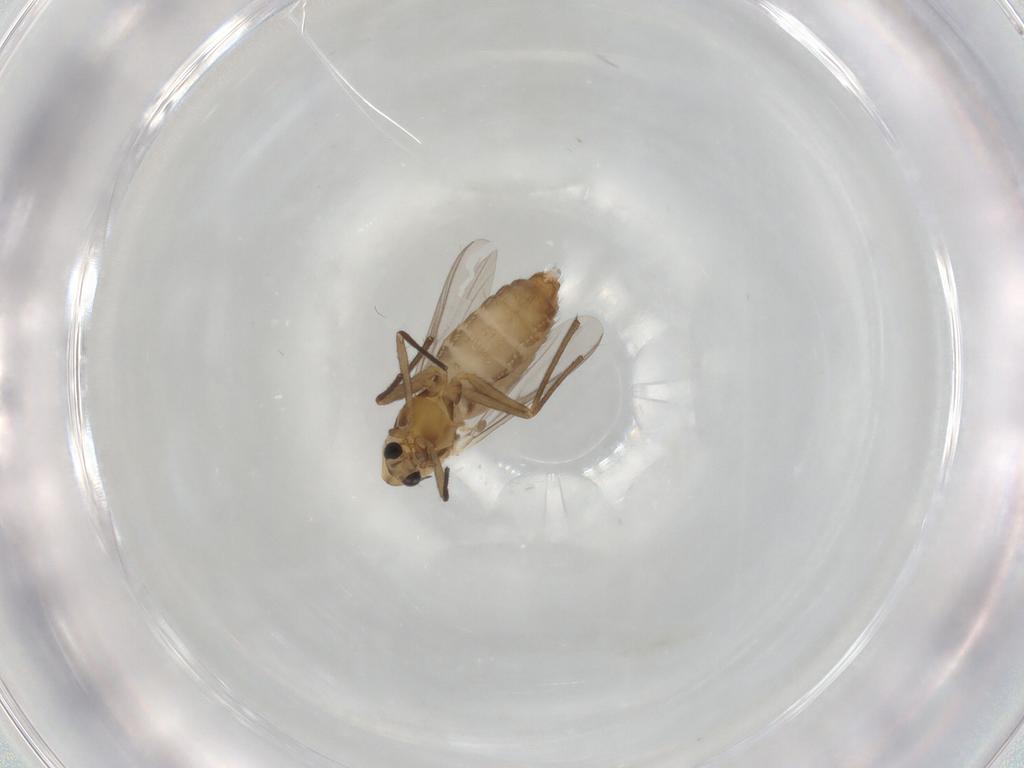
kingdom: Animalia
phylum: Arthropoda
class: Insecta
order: Diptera
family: Chironomidae
